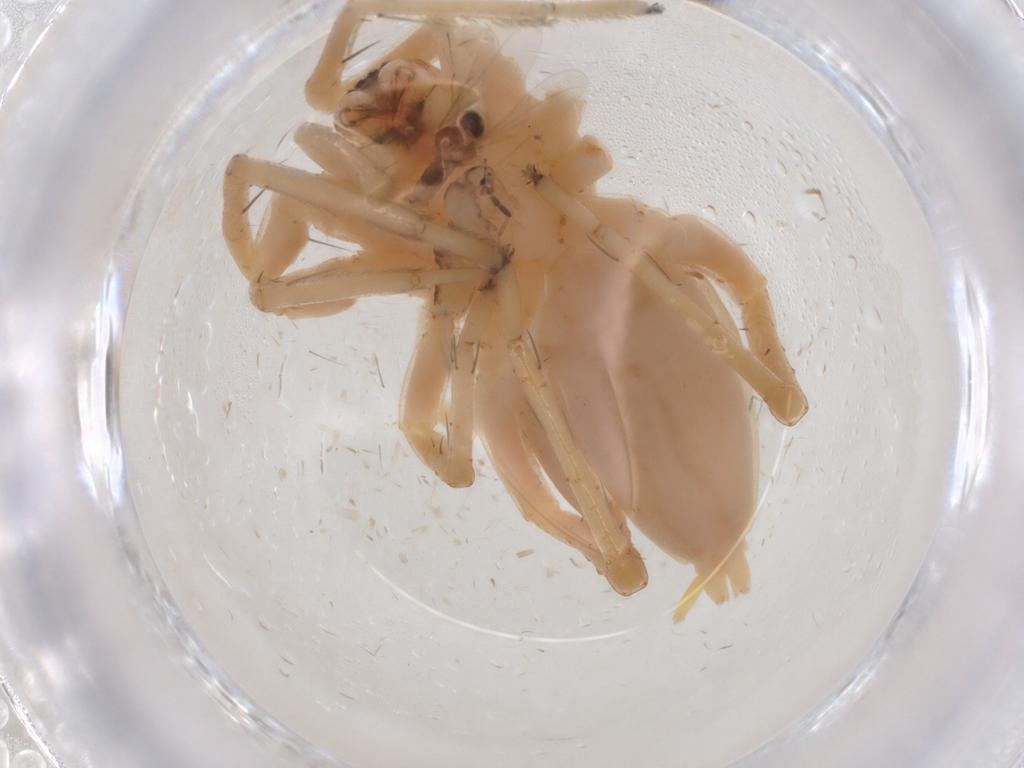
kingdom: Animalia
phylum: Arthropoda
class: Arachnida
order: Araneae
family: Anyphaenidae
